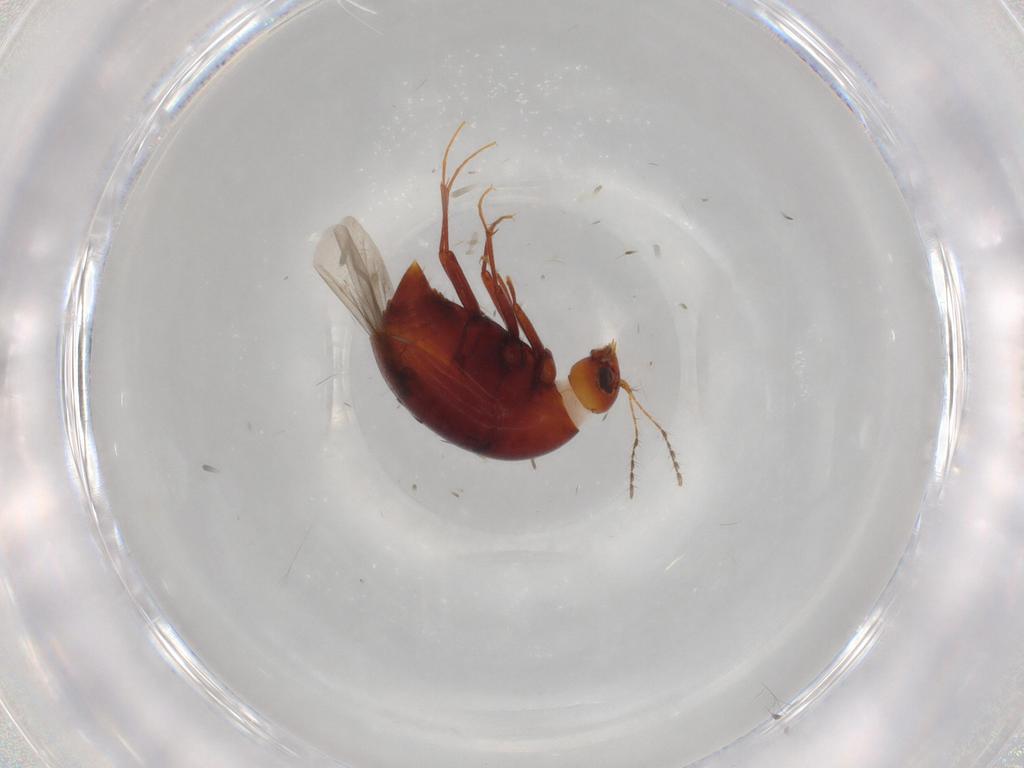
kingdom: Animalia
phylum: Arthropoda
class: Insecta
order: Coleoptera
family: Staphylinidae
